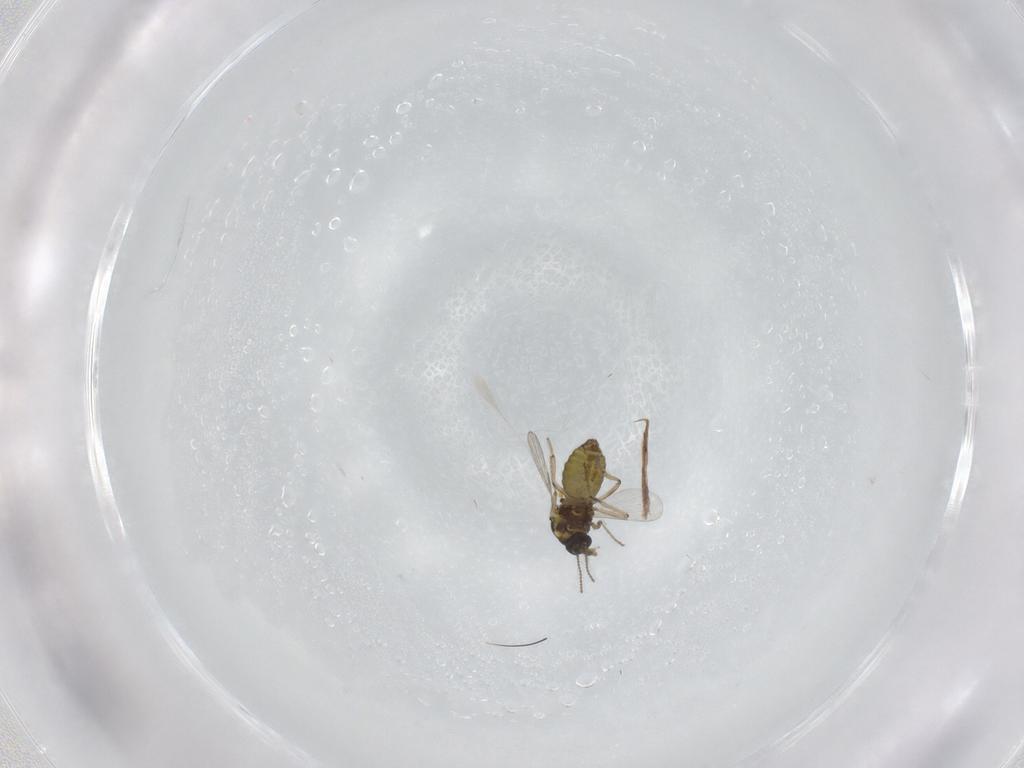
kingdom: Animalia
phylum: Arthropoda
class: Insecta
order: Diptera
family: Ceratopogonidae
